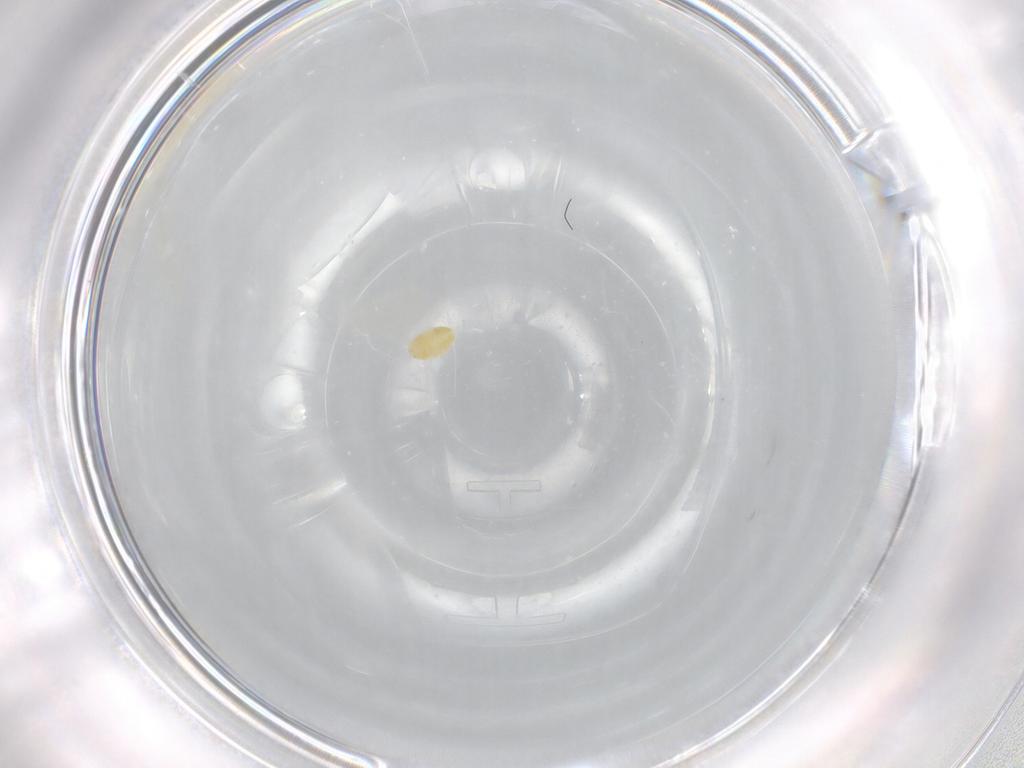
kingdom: Animalia
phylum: Arthropoda
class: Arachnida
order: Trombidiformes
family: Eupodidae
